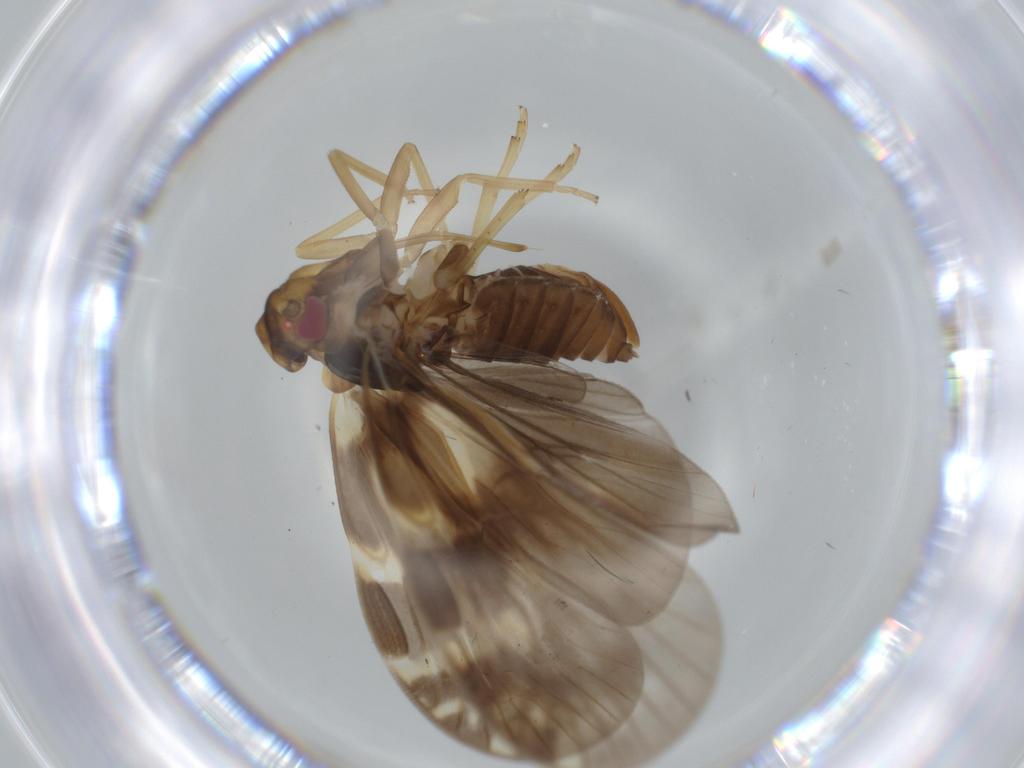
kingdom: Animalia
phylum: Arthropoda
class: Insecta
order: Hemiptera
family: Cixiidae
